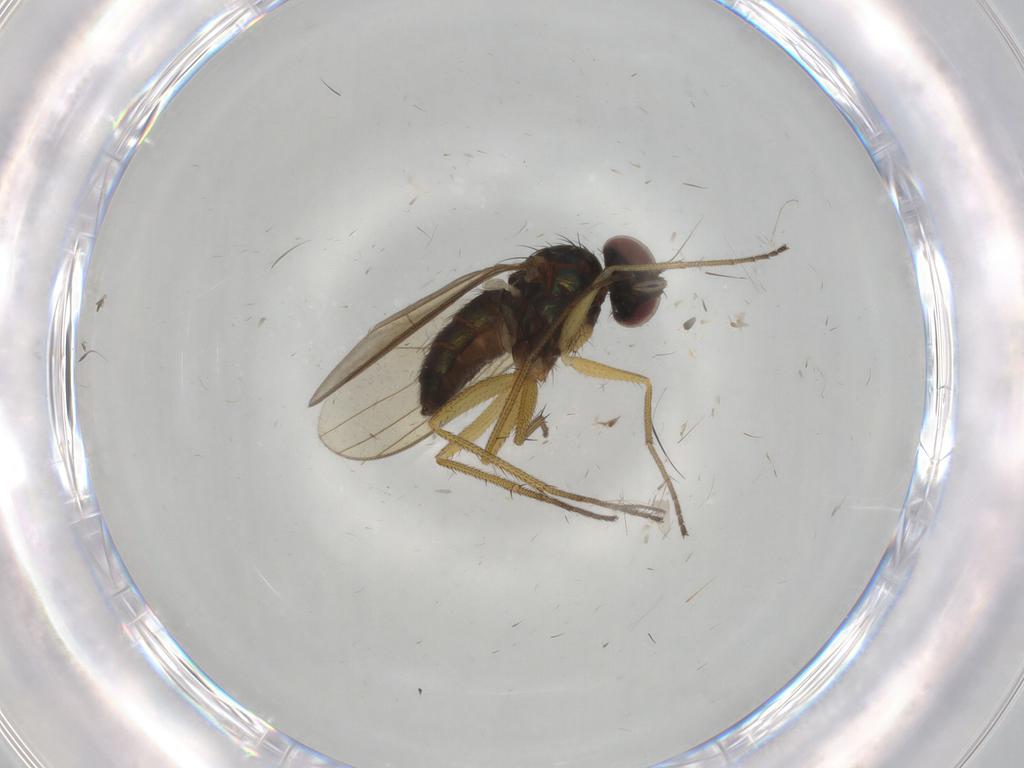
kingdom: Animalia
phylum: Arthropoda
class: Insecta
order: Diptera
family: Dolichopodidae
